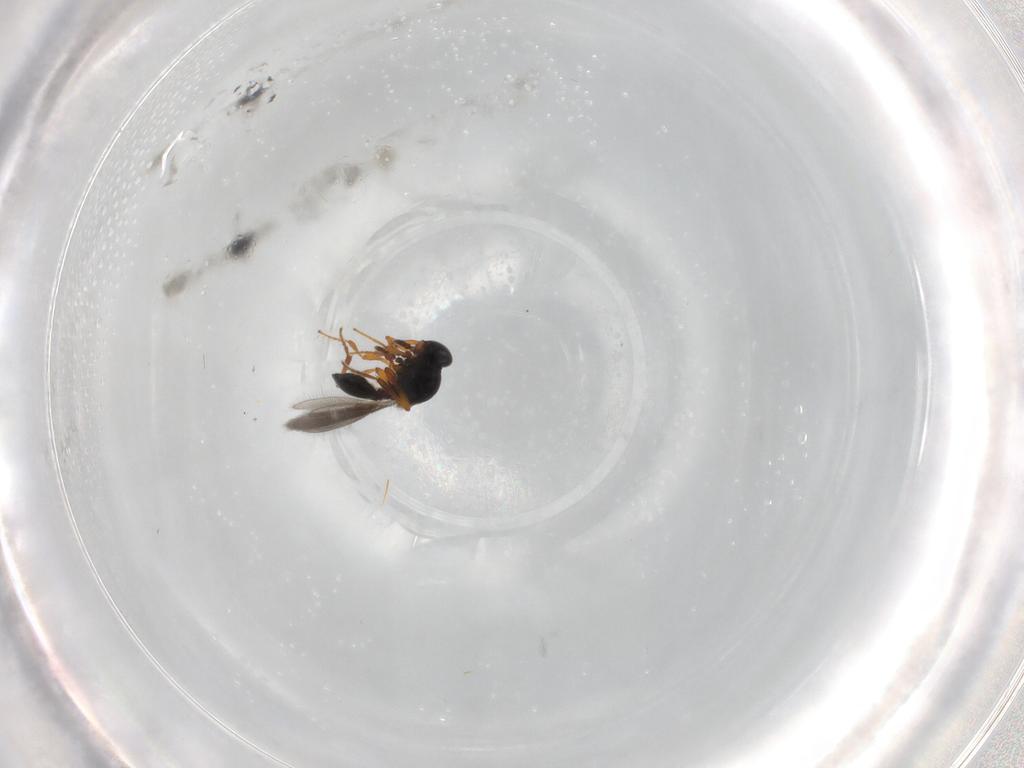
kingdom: Animalia
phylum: Arthropoda
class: Insecta
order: Hymenoptera
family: Platygastridae
